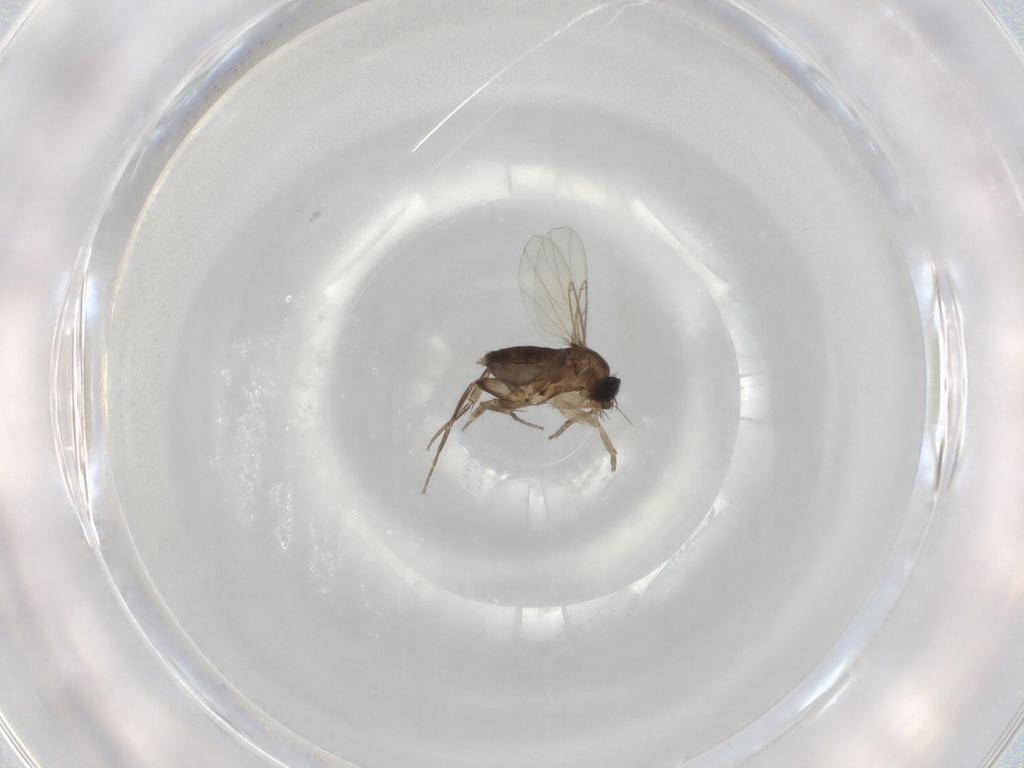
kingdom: Animalia
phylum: Arthropoda
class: Insecta
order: Diptera
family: Phoridae
